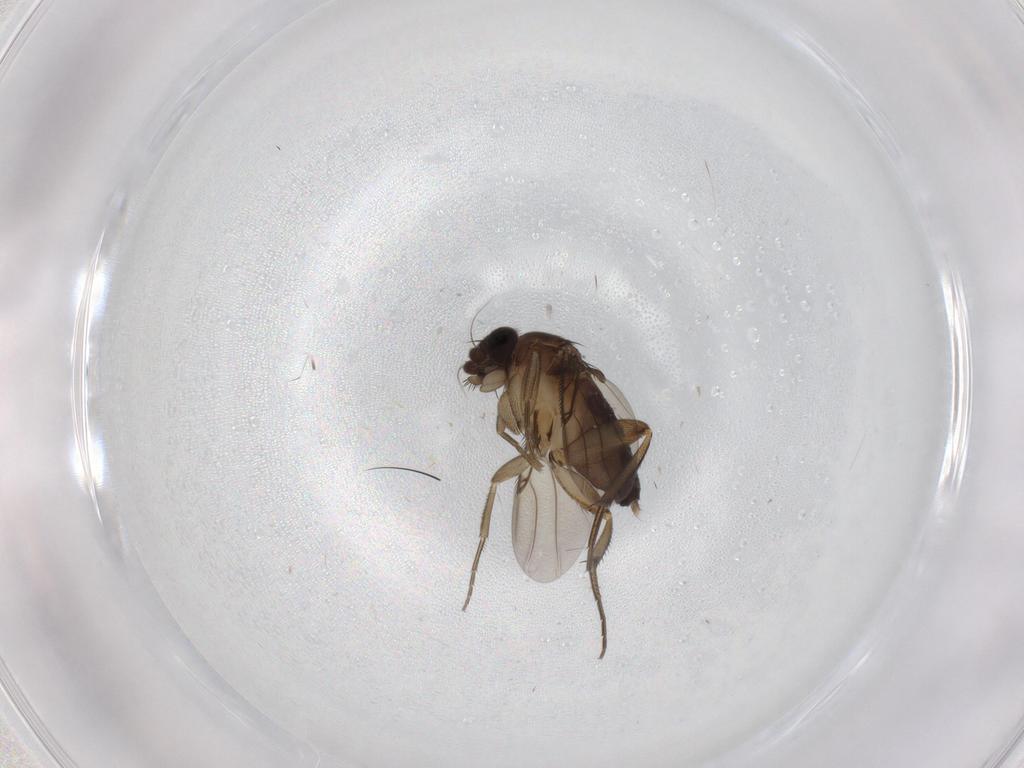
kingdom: Animalia
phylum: Arthropoda
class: Insecta
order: Diptera
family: Phoridae
